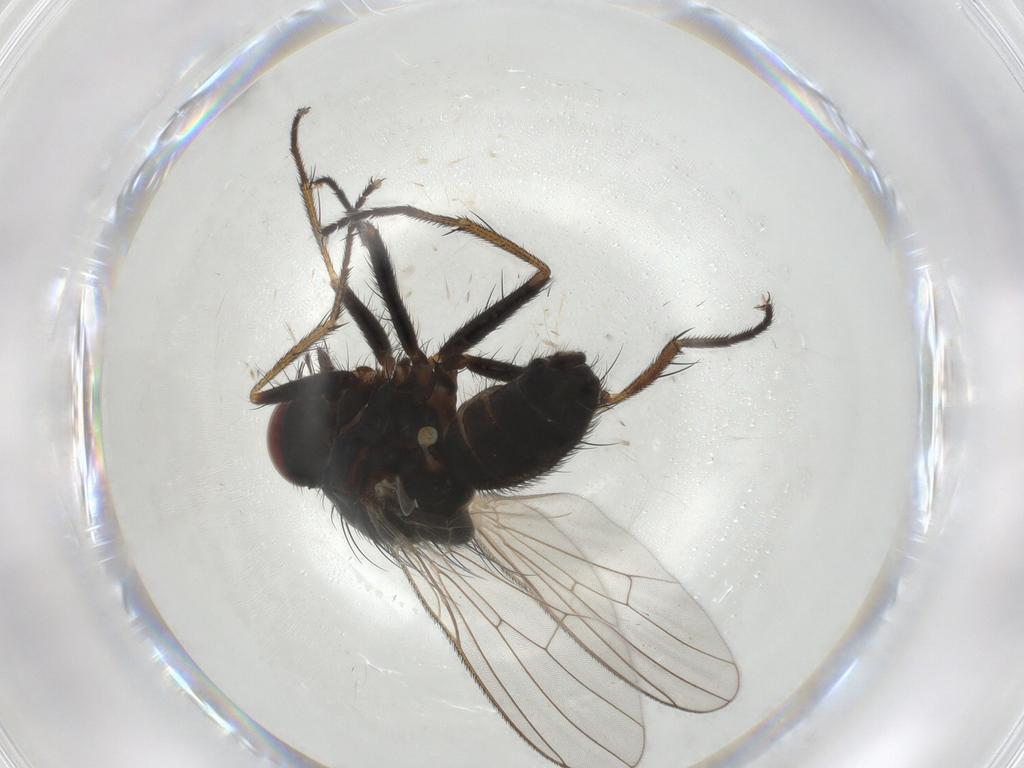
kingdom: Animalia
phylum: Arthropoda
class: Insecta
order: Diptera
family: Muscidae
